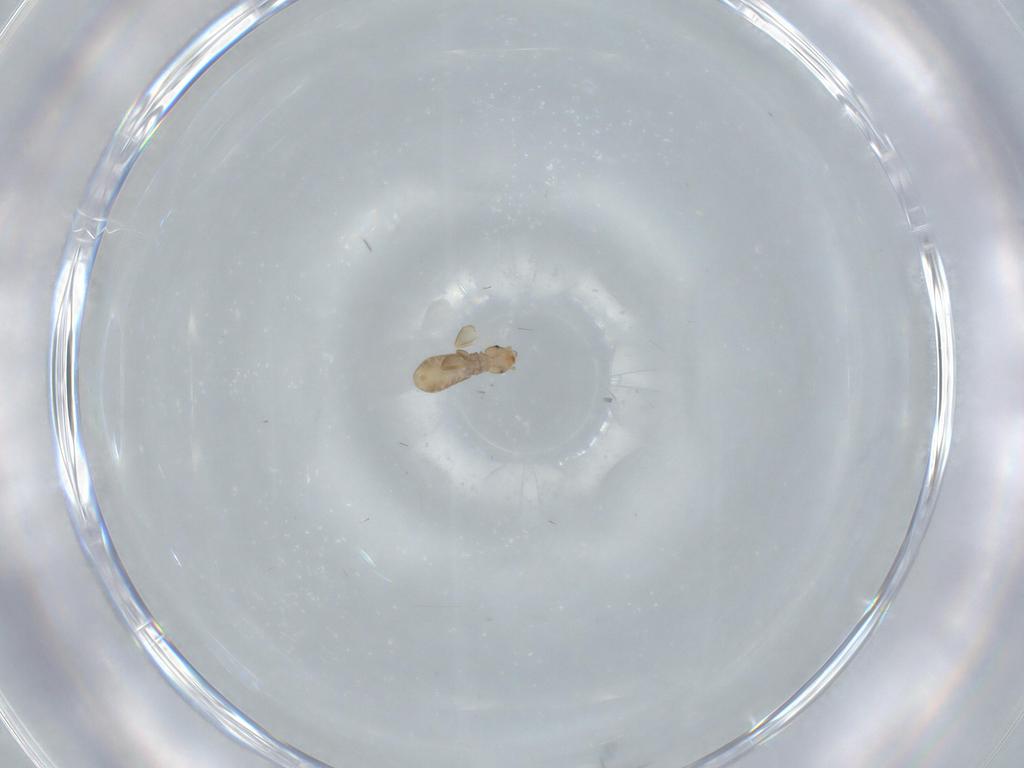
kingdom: Animalia
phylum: Arthropoda
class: Insecta
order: Psocodea
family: Liposcelididae
